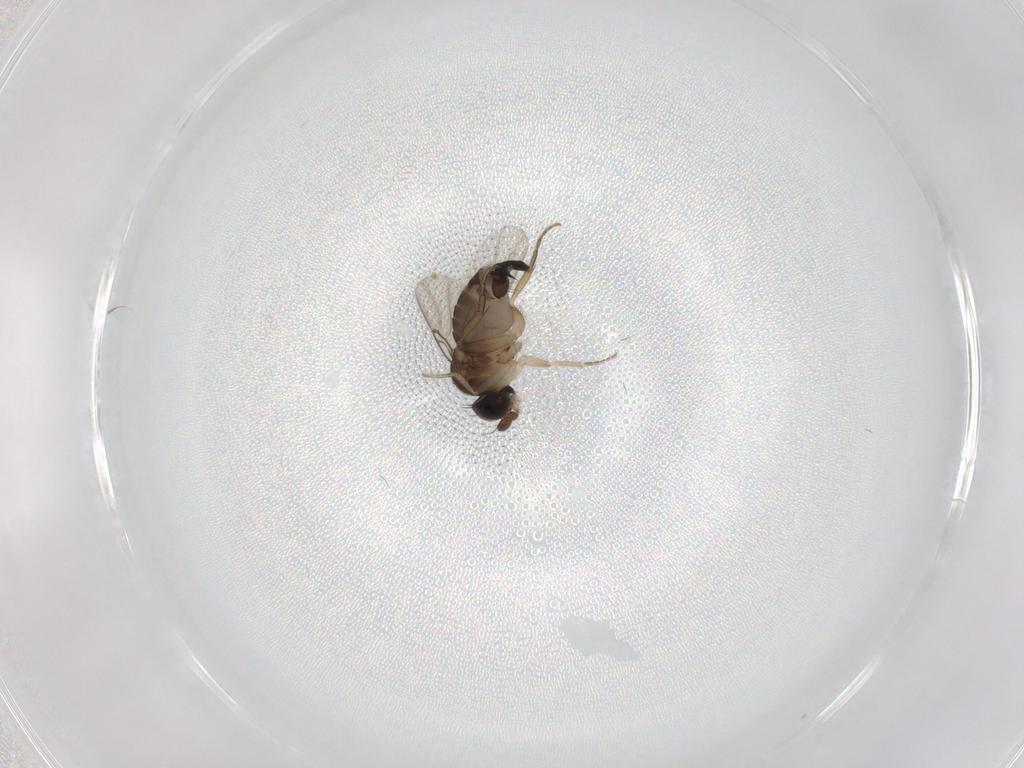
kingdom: Animalia
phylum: Arthropoda
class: Insecta
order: Diptera
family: Phoridae
